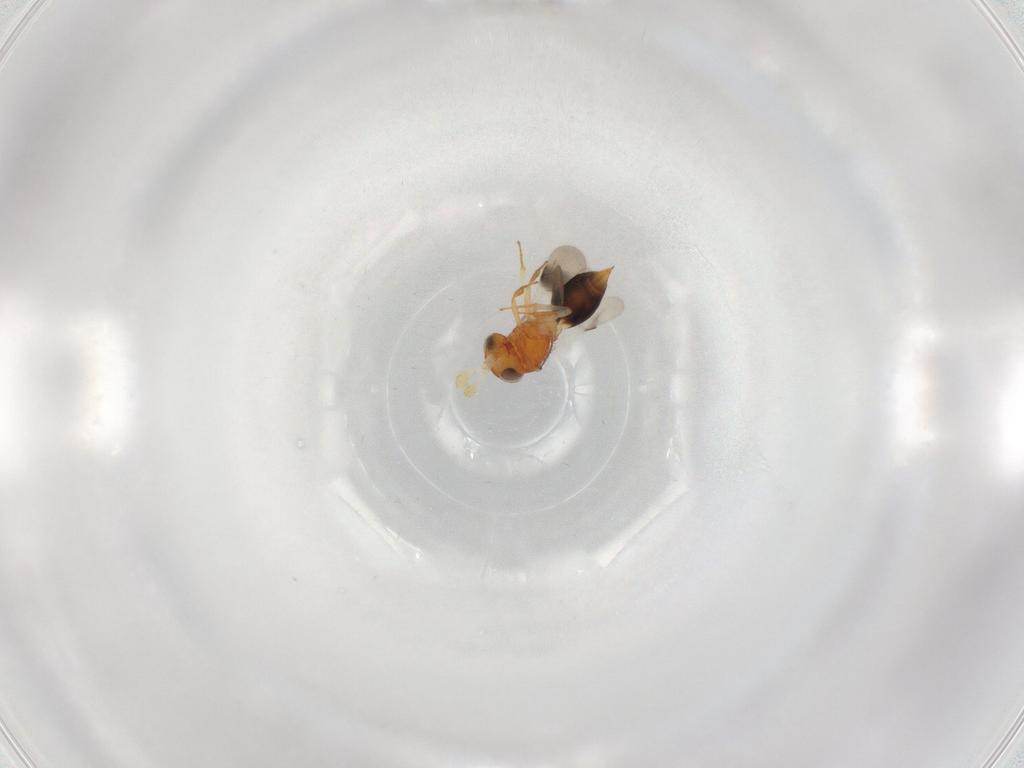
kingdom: Animalia
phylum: Arthropoda
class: Insecta
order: Hymenoptera
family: Scelionidae
